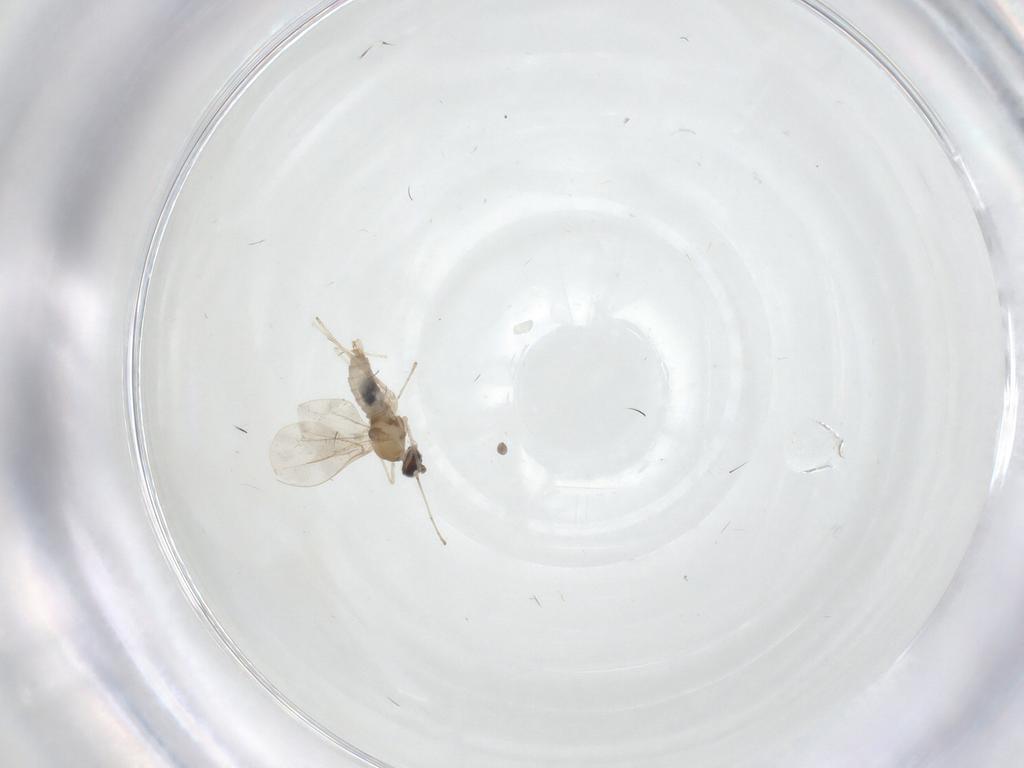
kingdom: Animalia
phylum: Arthropoda
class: Insecta
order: Diptera
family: Cecidomyiidae
